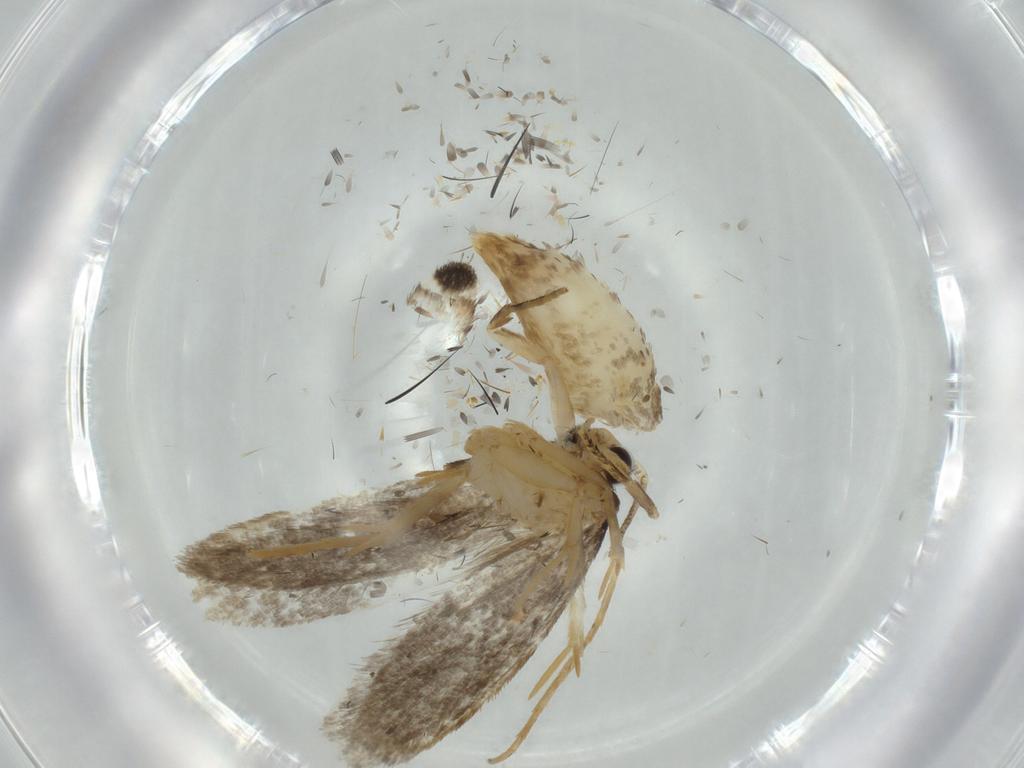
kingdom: Animalia
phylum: Arthropoda
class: Insecta
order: Lepidoptera
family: Tineidae
